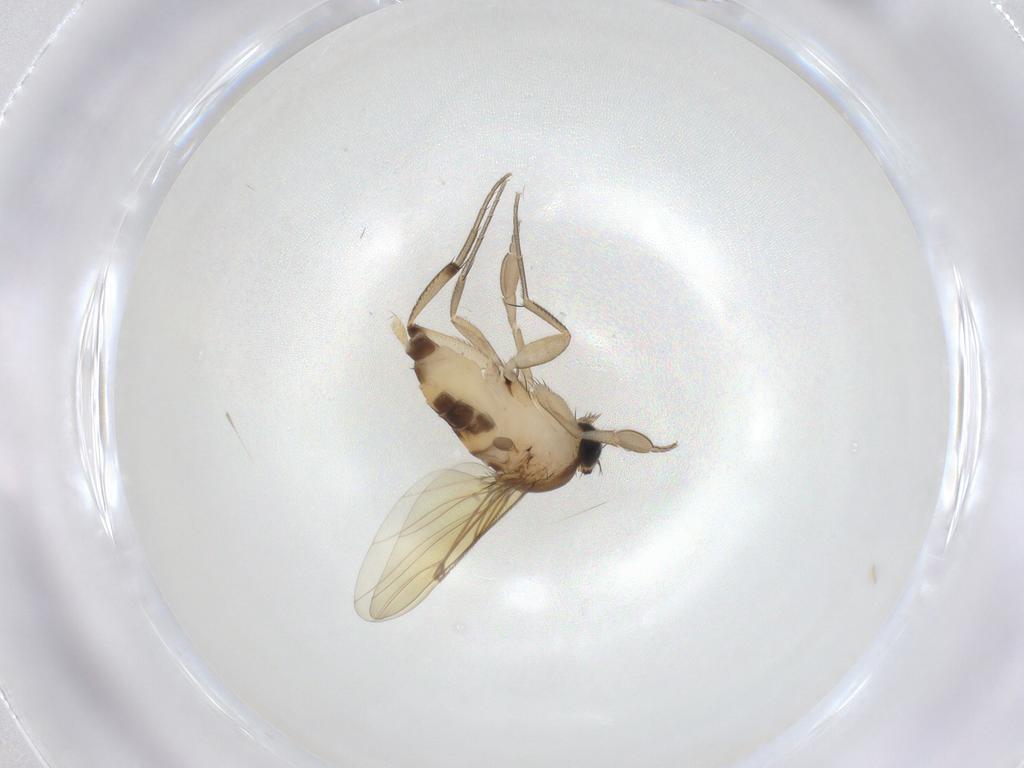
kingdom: Animalia
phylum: Arthropoda
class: Insecta
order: Diptera
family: Phoridae
